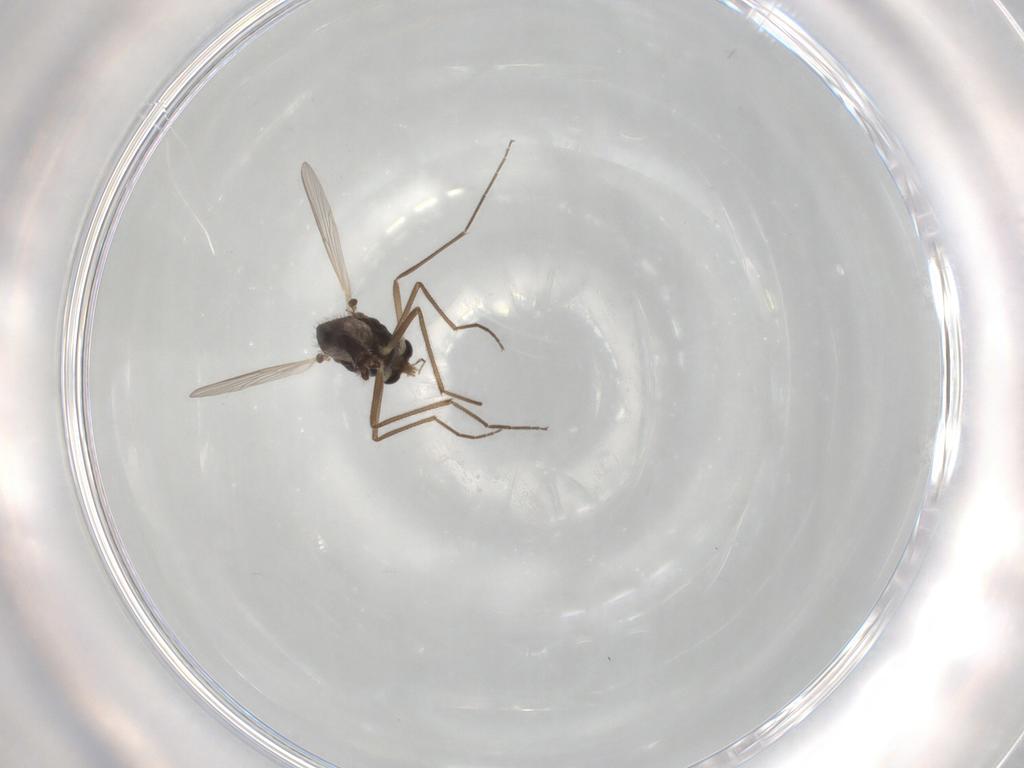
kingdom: Animalia
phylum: Arthropoda
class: Insecta
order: Diptera
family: Chironomidae
